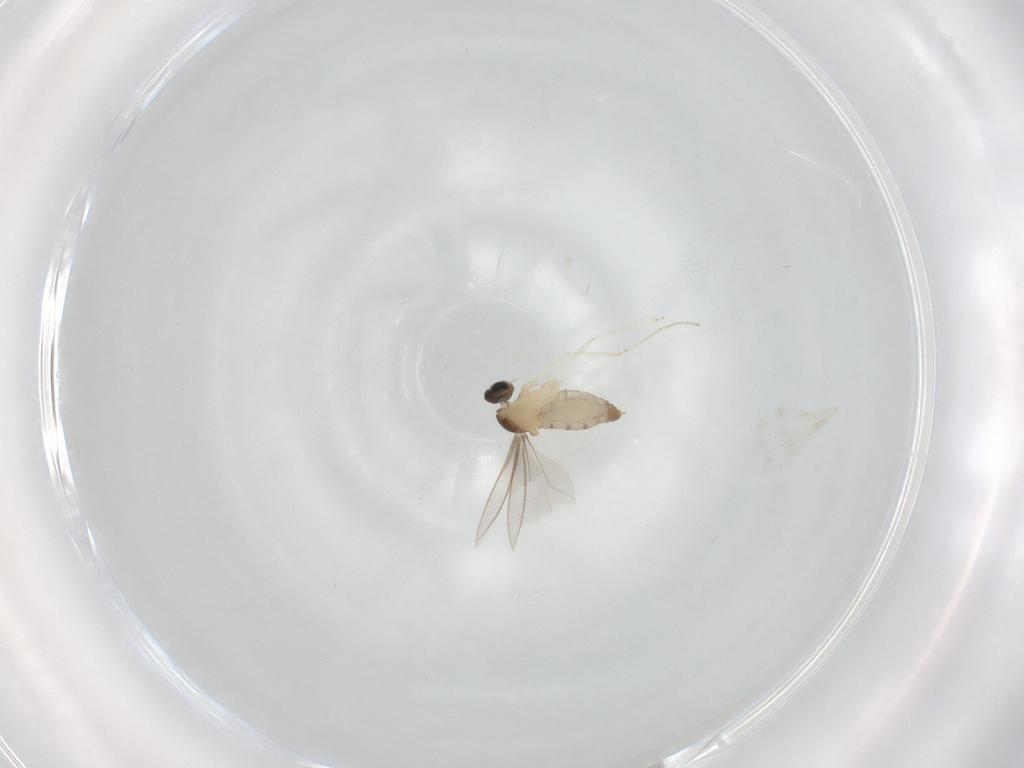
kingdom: Animalia
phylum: Arthropoda
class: Insecta
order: Diptera
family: Cecidomyiidae
